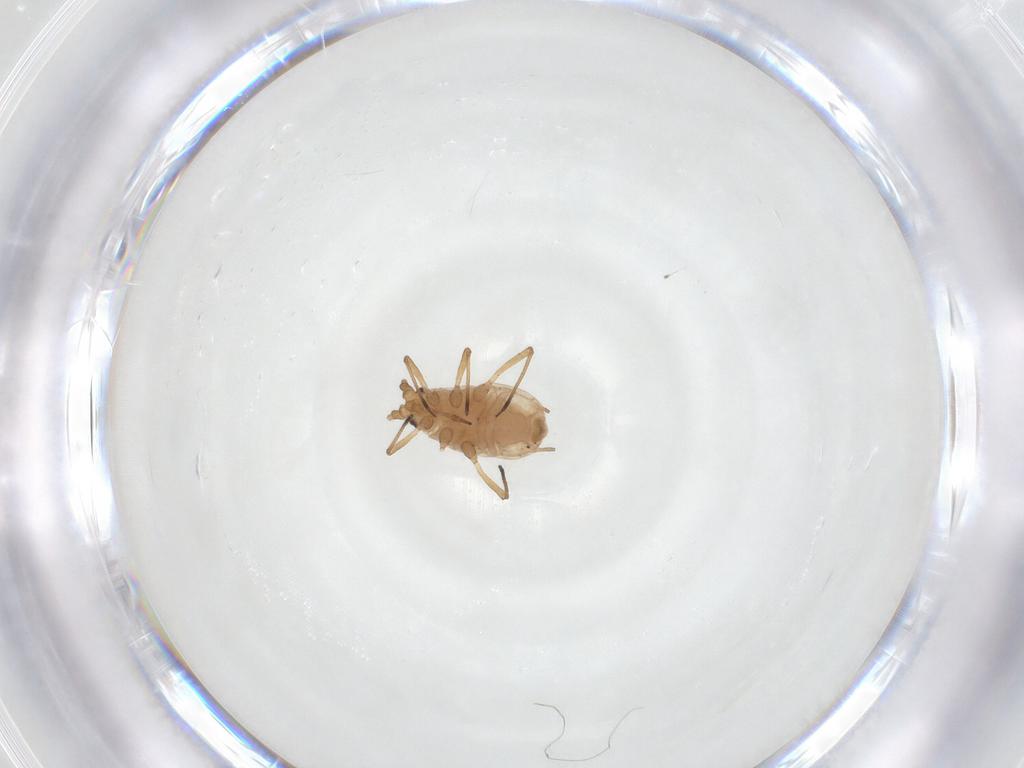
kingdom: Animalia
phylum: Arthropoda
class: Insecta
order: Hemiptera
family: Aphididae
